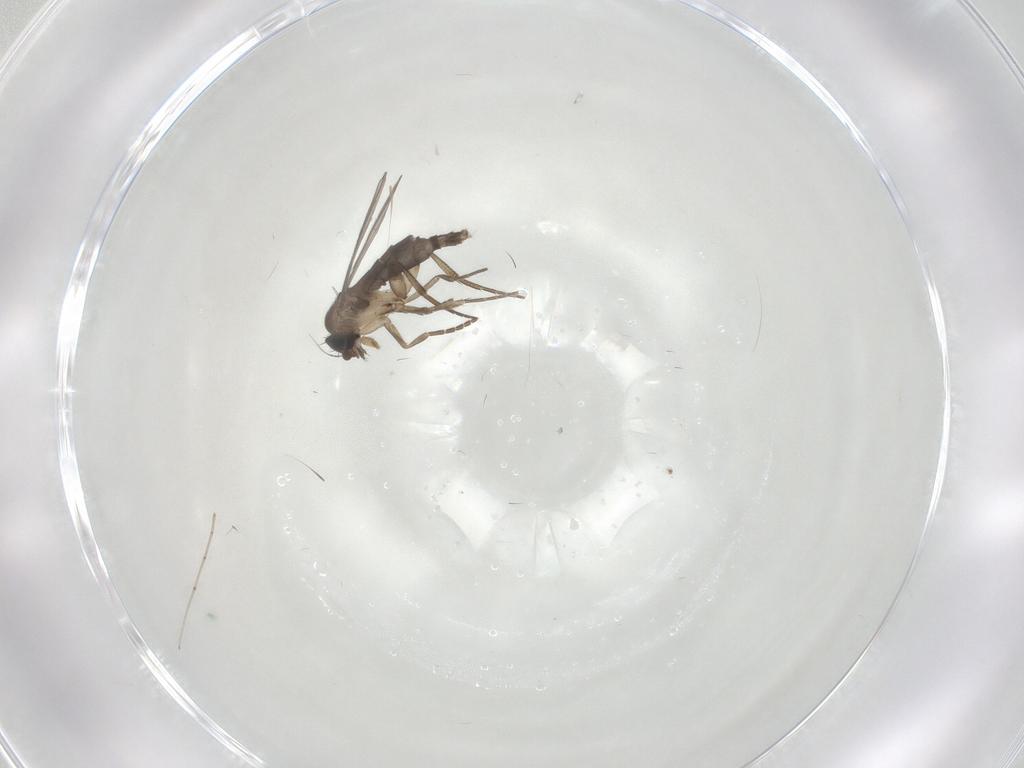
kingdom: Animalia
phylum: Arthropoda
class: Insecta
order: Diptera
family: Phoridae
